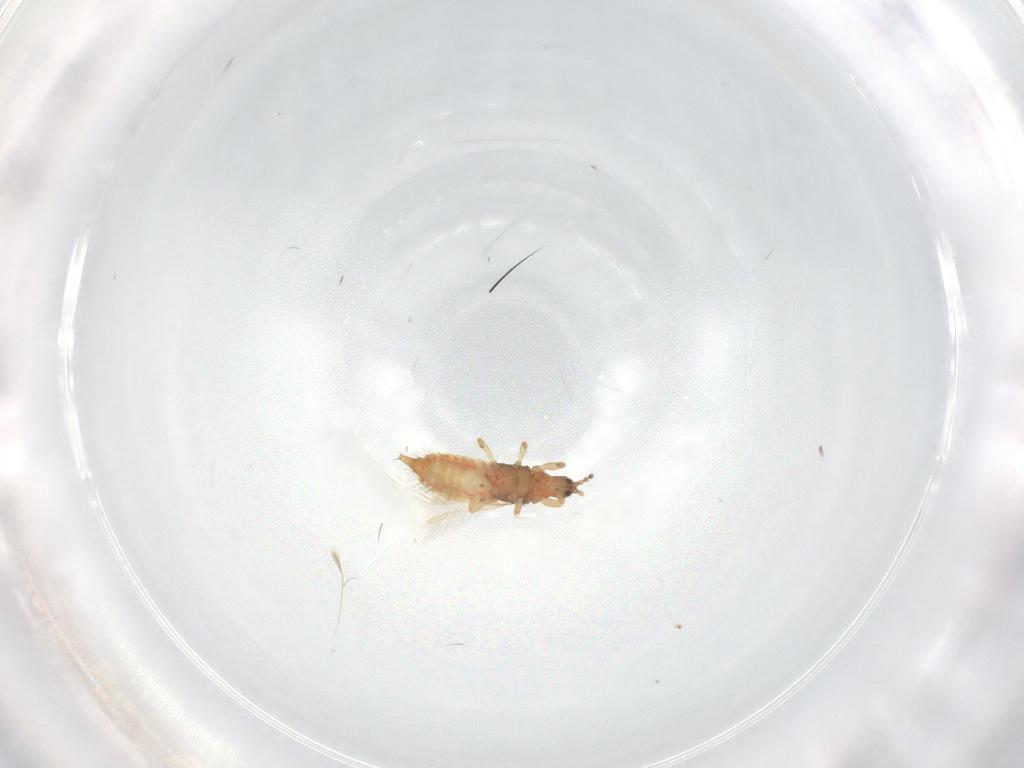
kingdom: Animalia
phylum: Arthropoda
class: Insecta
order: Thysanoptera
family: Phlaeothripidae
